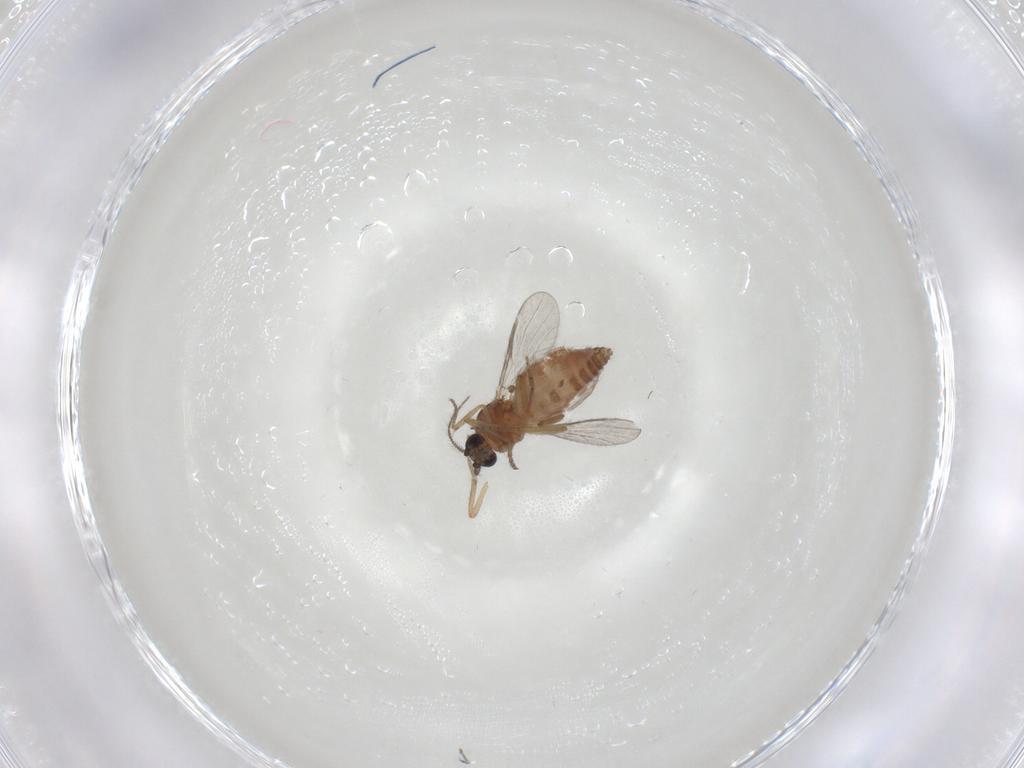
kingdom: Animalia
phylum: Arthropoda
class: Insecta
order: Diptera
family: Ceratopogonidae
